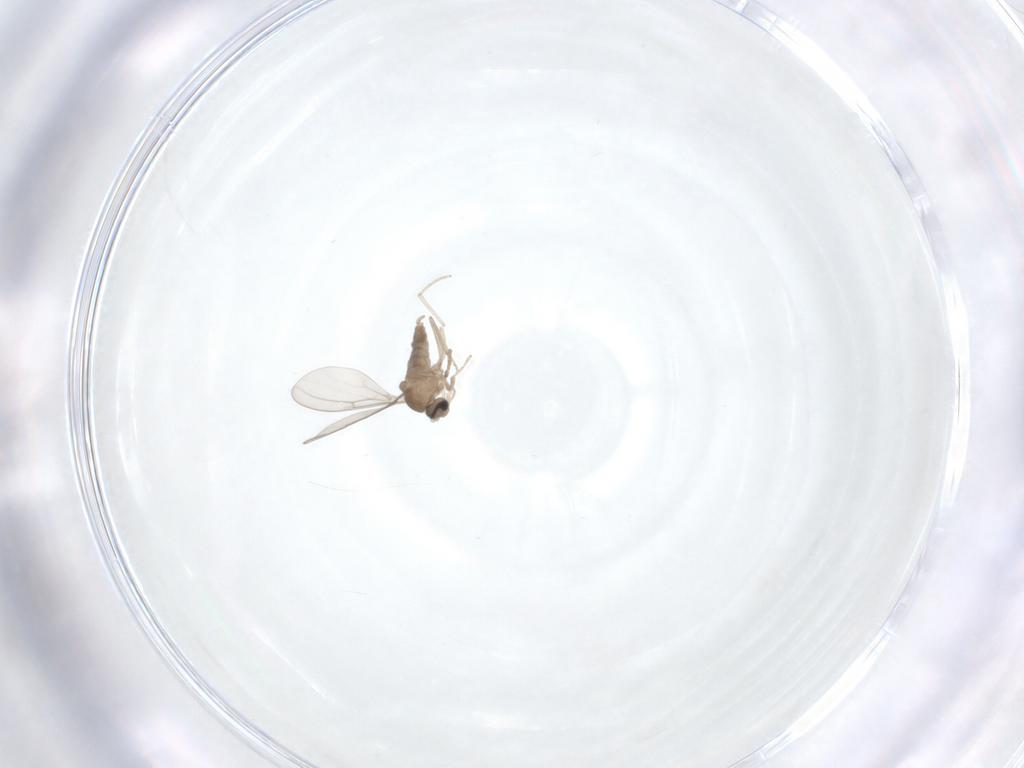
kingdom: Animalia
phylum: Arthropoda
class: Insecta
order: Diptera
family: Cecidomyiidae
